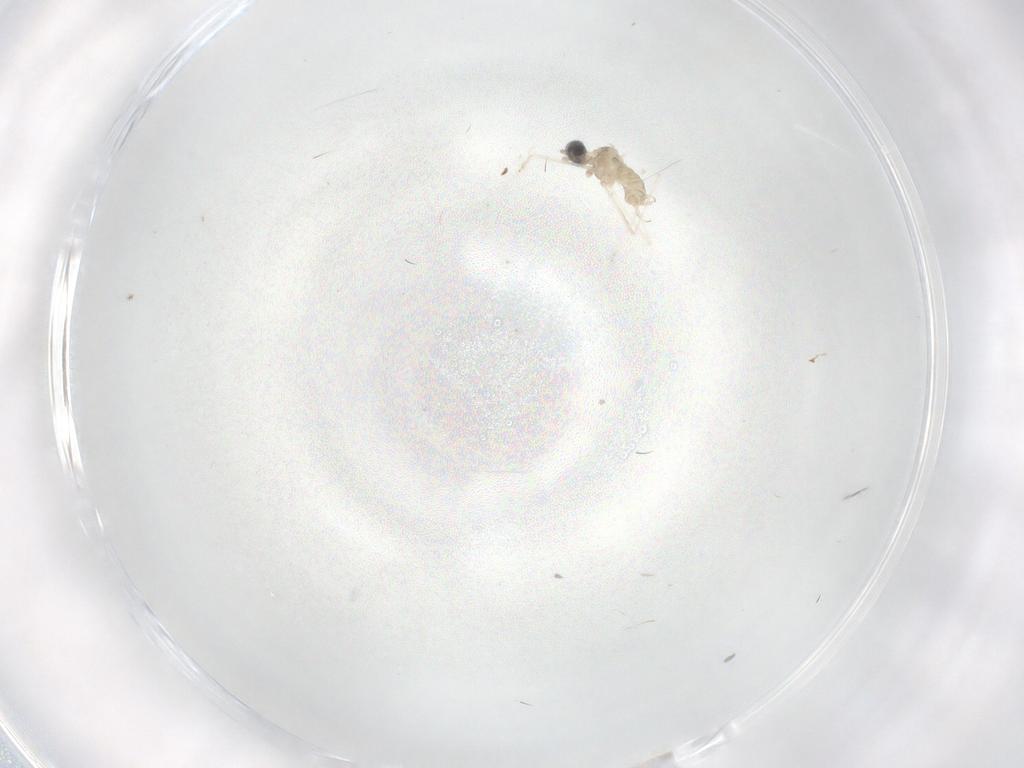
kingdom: Animalia
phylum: Arthropoda
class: Insecta
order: Diptera
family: Cecidomyiidae
